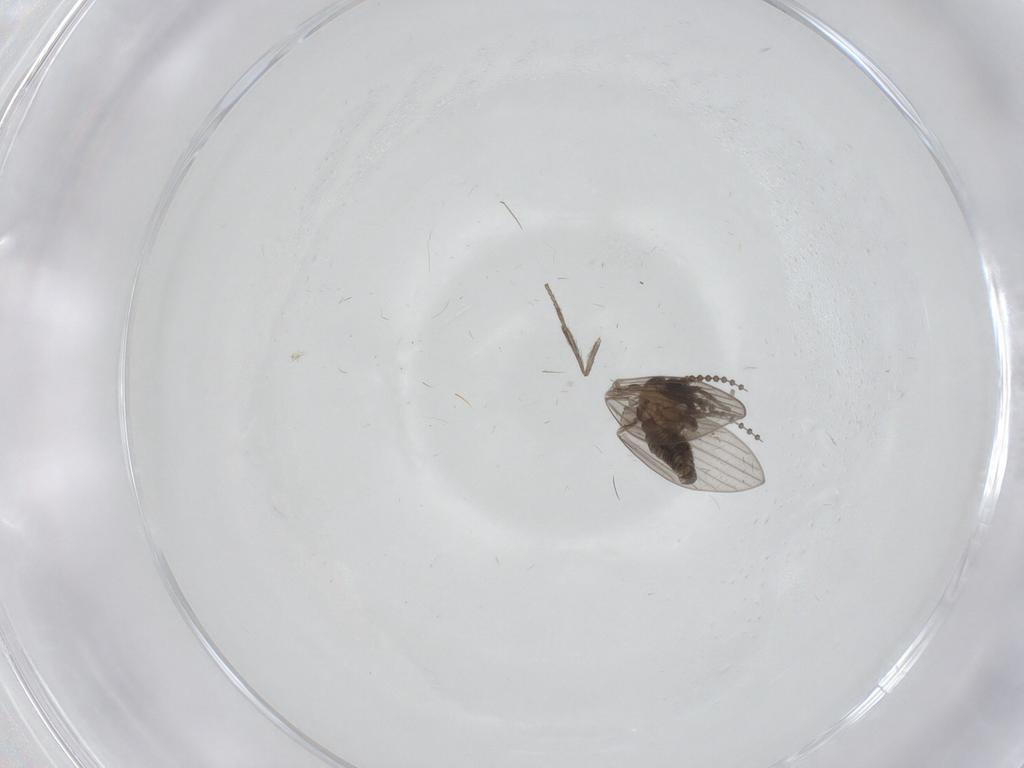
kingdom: Animalia
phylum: Arthropoda
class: Insecta
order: Diptera
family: Psychodidae
